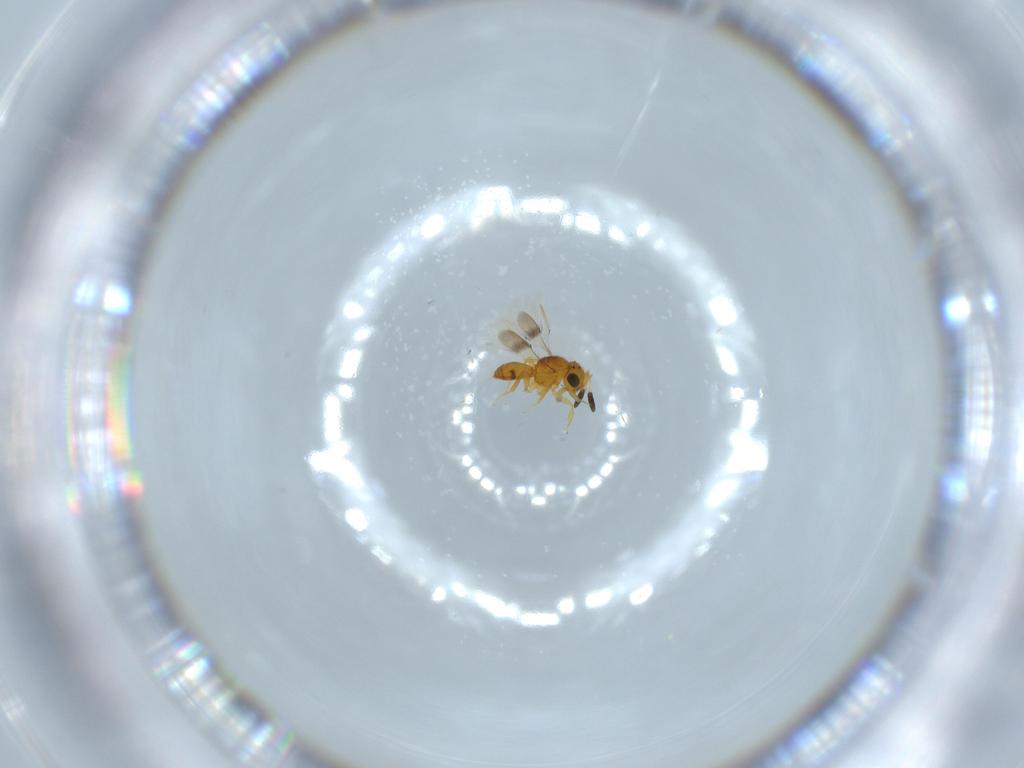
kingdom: Animalia
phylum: Arthropoda
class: Insecta
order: Hymenoptera
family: Scelionidae
